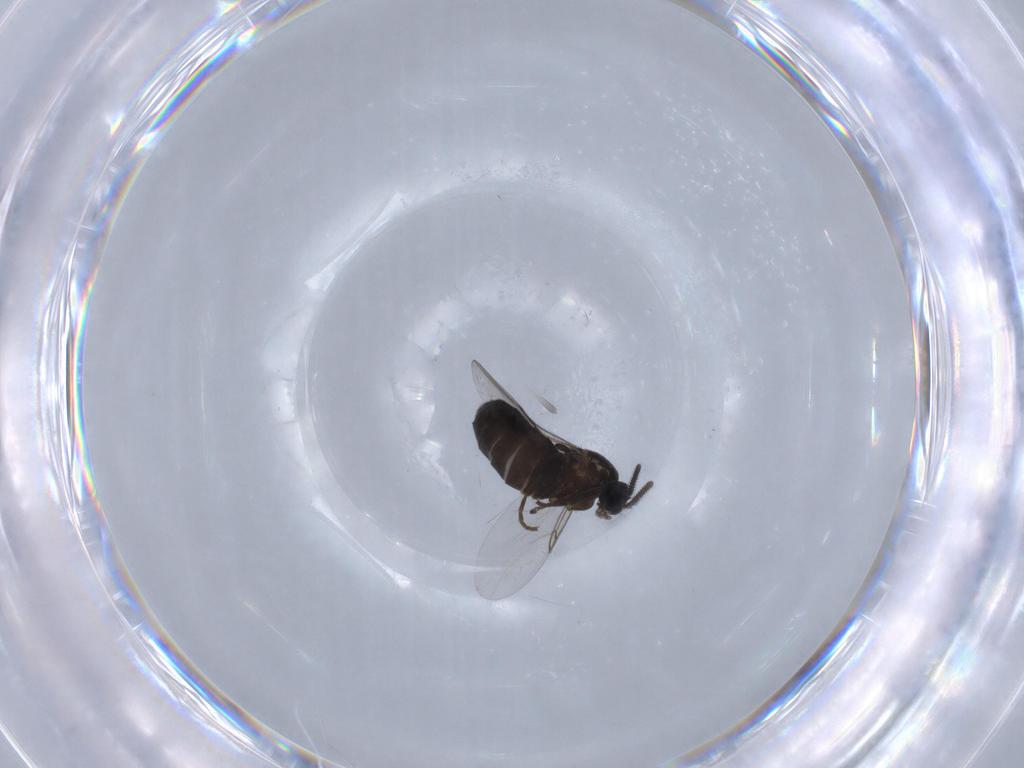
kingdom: Animalia
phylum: Arthropoda
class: Insecta
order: Diptera
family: Scatopsidae
